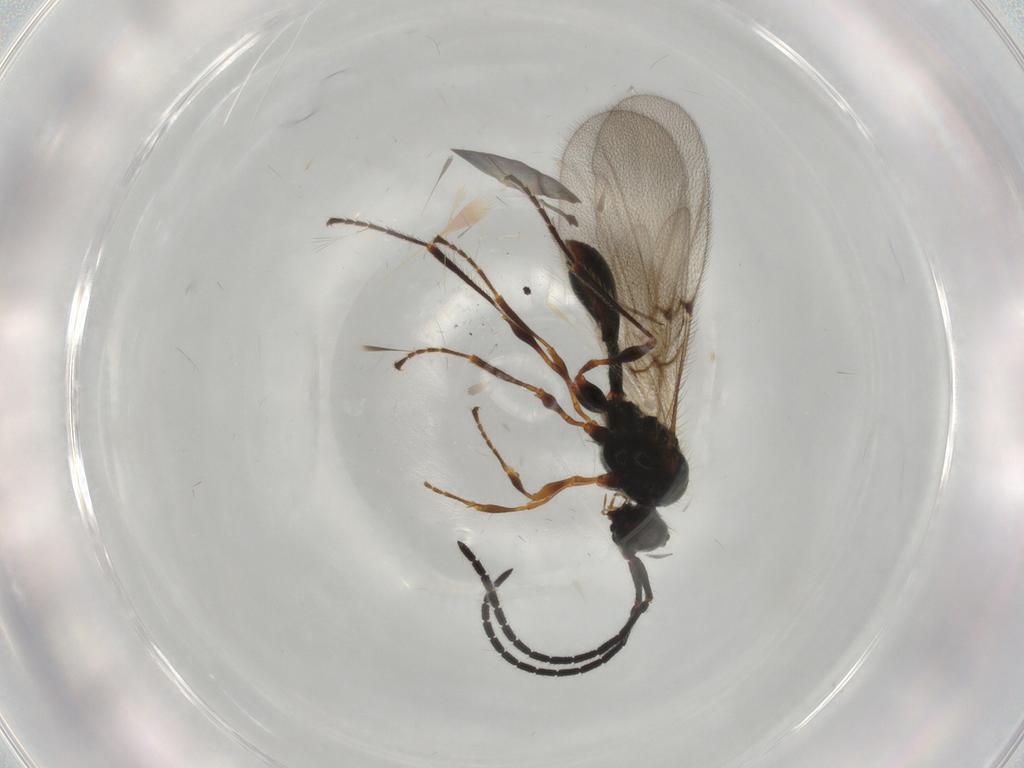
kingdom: Animalia
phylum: Arthropoda
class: Insecta
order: Hymenoptera
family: Diapriidae
